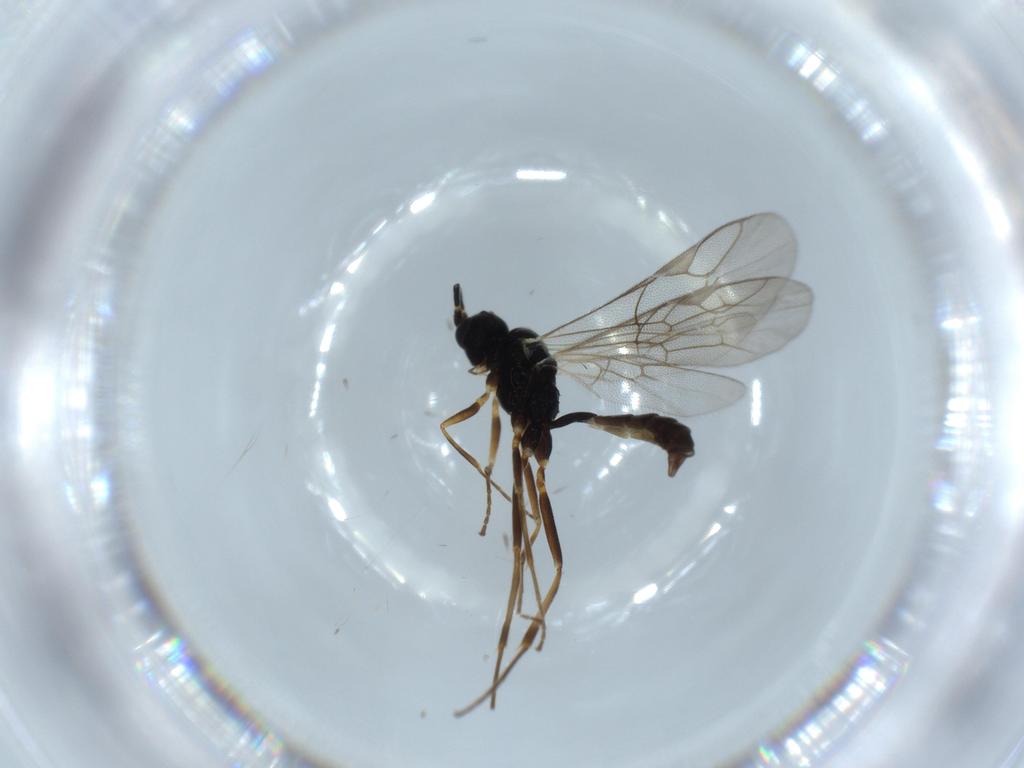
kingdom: Animalia
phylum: Arthropoda
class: Insecta
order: Hymenoptera
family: Ichneumonidae
